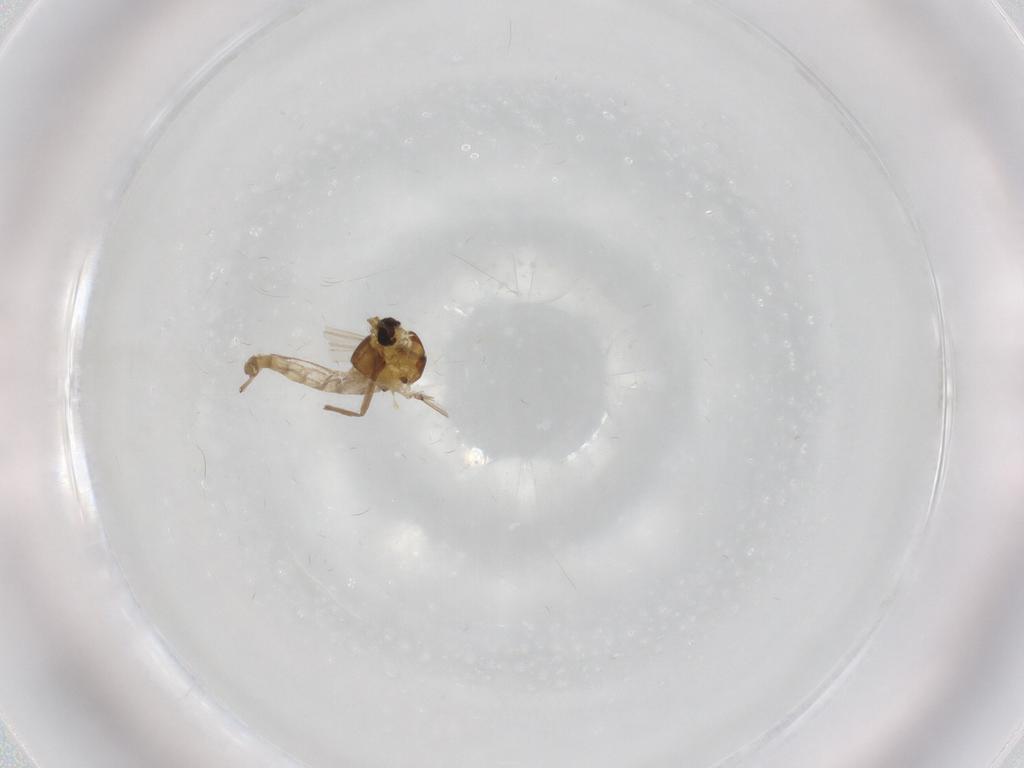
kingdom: Animalia
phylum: Arthropoda
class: Insecta
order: Diptera
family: Chironomidae
